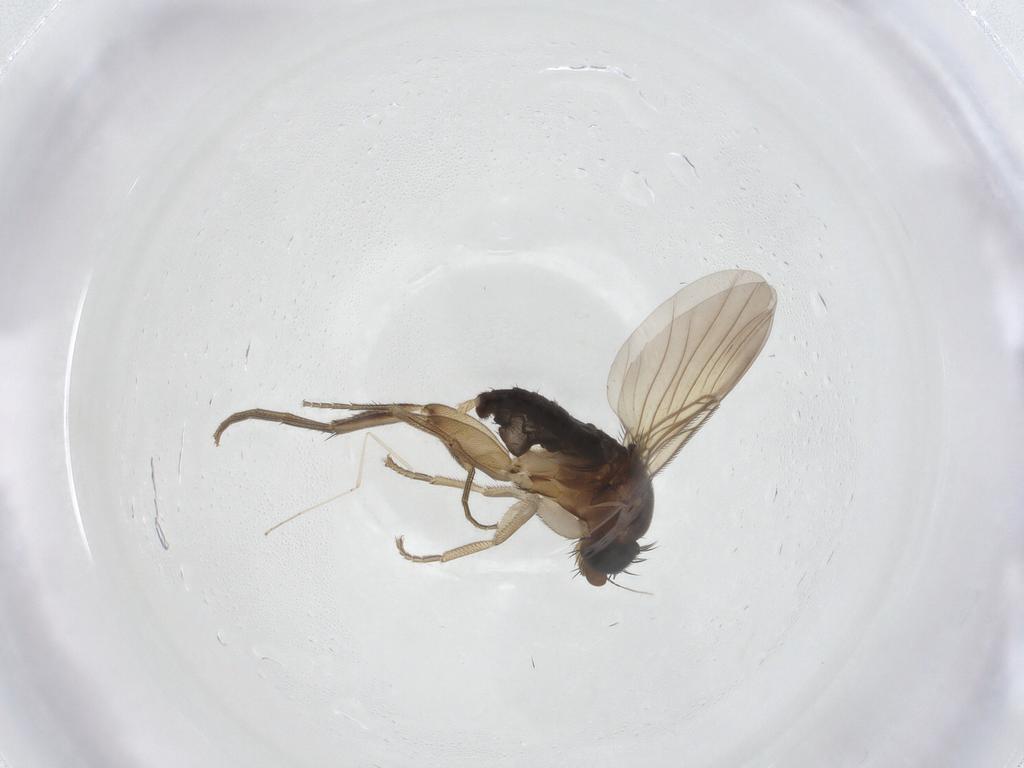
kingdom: Animalia
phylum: Arthropoda
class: Insecta
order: Diptera
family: Phoridae
